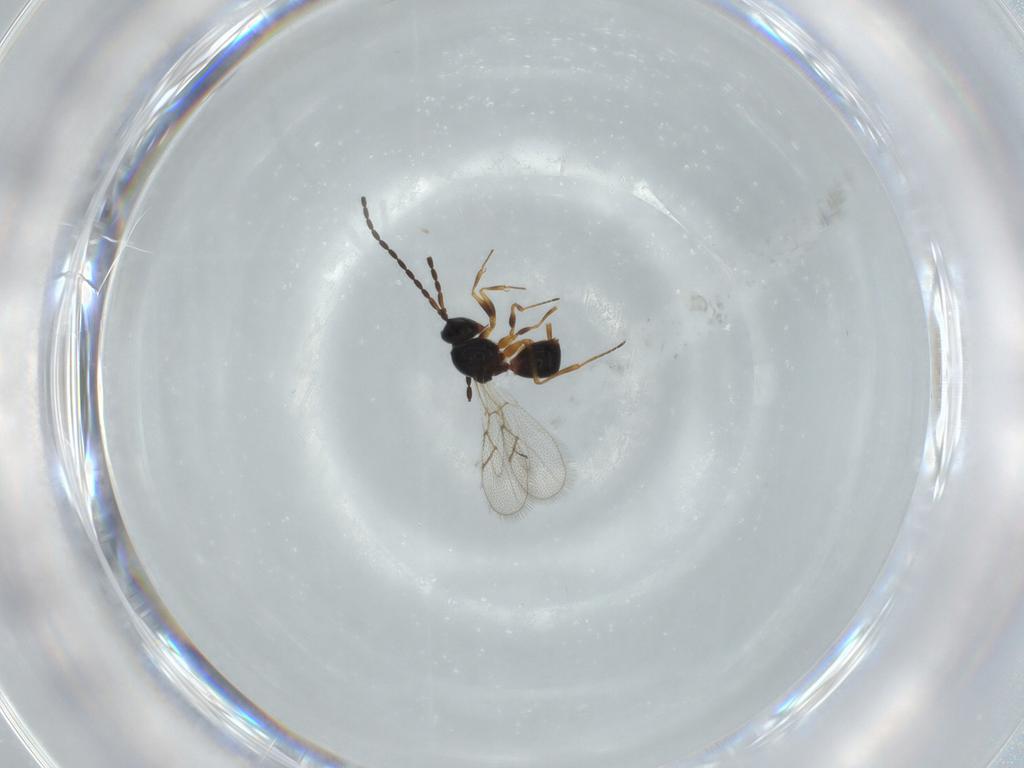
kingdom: Animalia
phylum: Arthropoda
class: Insecta
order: Hymenoptera
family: Figitidae
